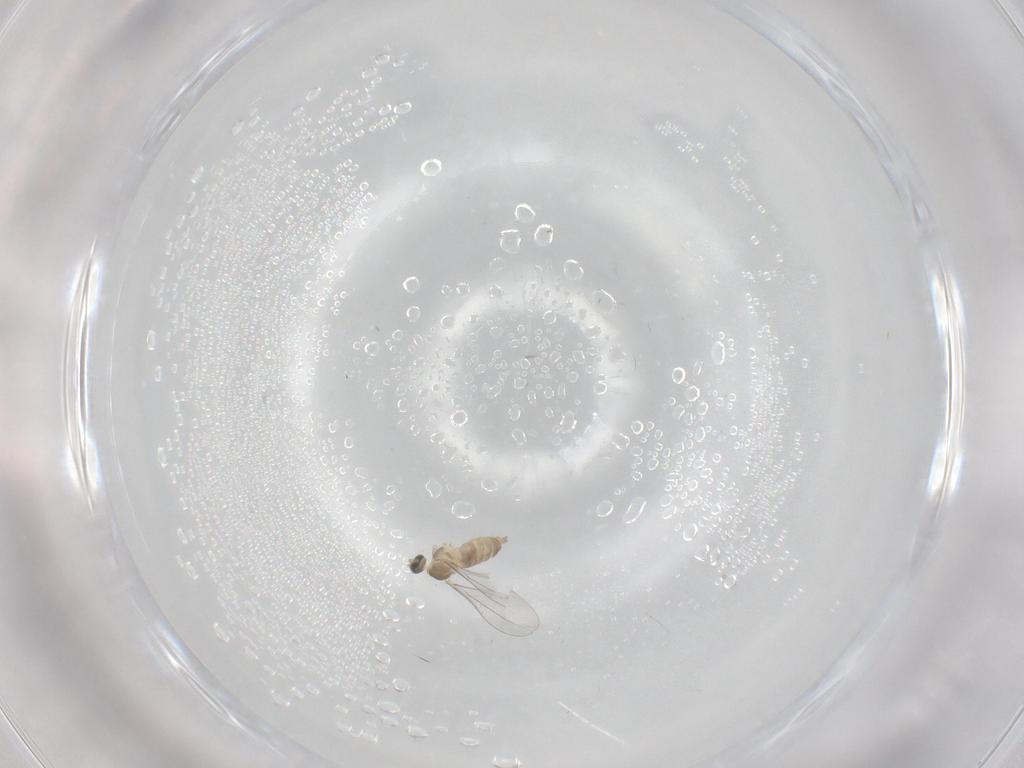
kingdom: Animalia
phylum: Arthropoda
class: Insecta
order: Diptera
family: Cecidomyiidae
